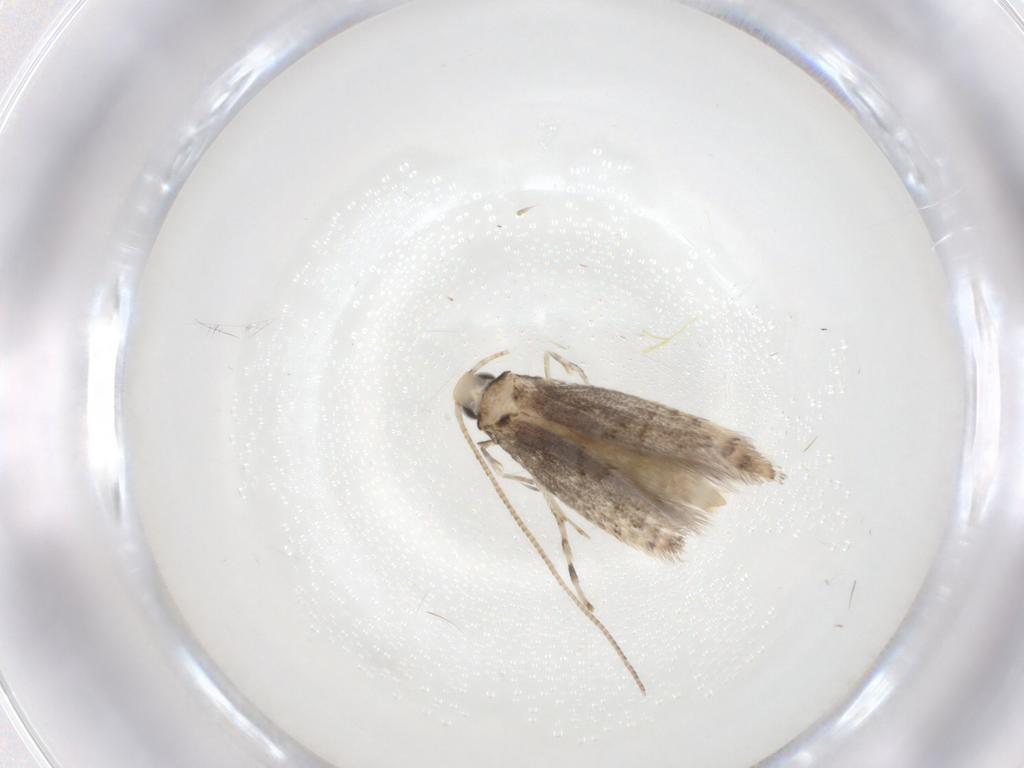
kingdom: Animalia
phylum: Arthropoda
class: Insecta
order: Lepidoptera
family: Gracillariidae
